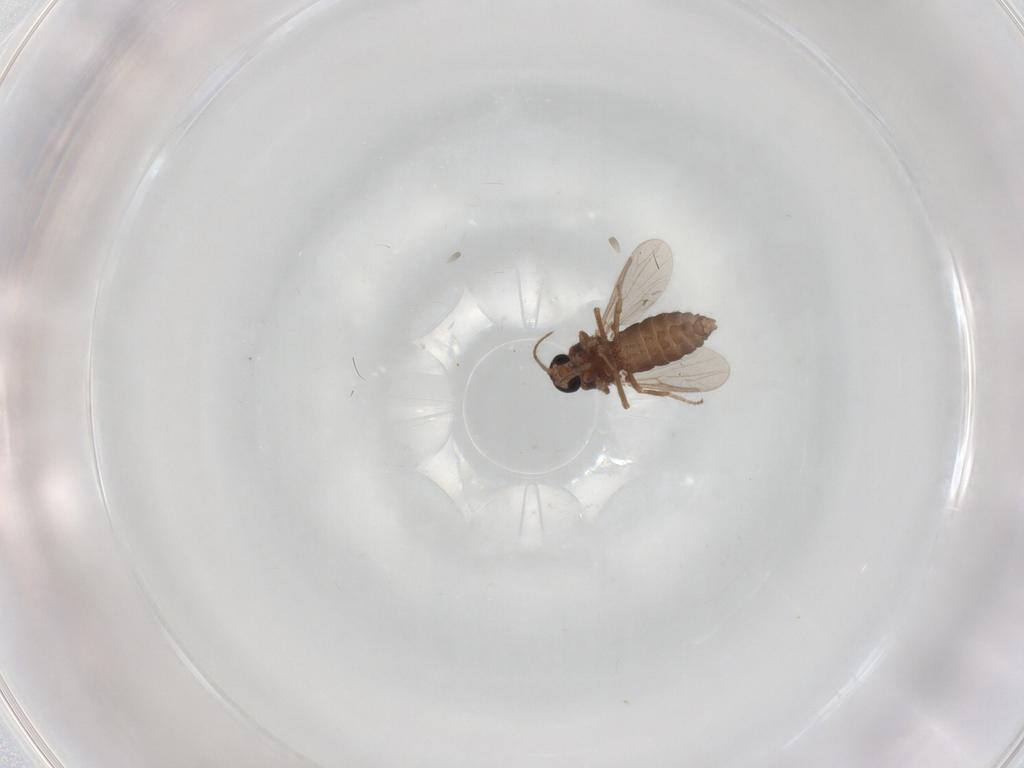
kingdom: Animalia
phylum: Arthropoda
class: Insecta
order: Diptera
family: Ceratopogonidae
